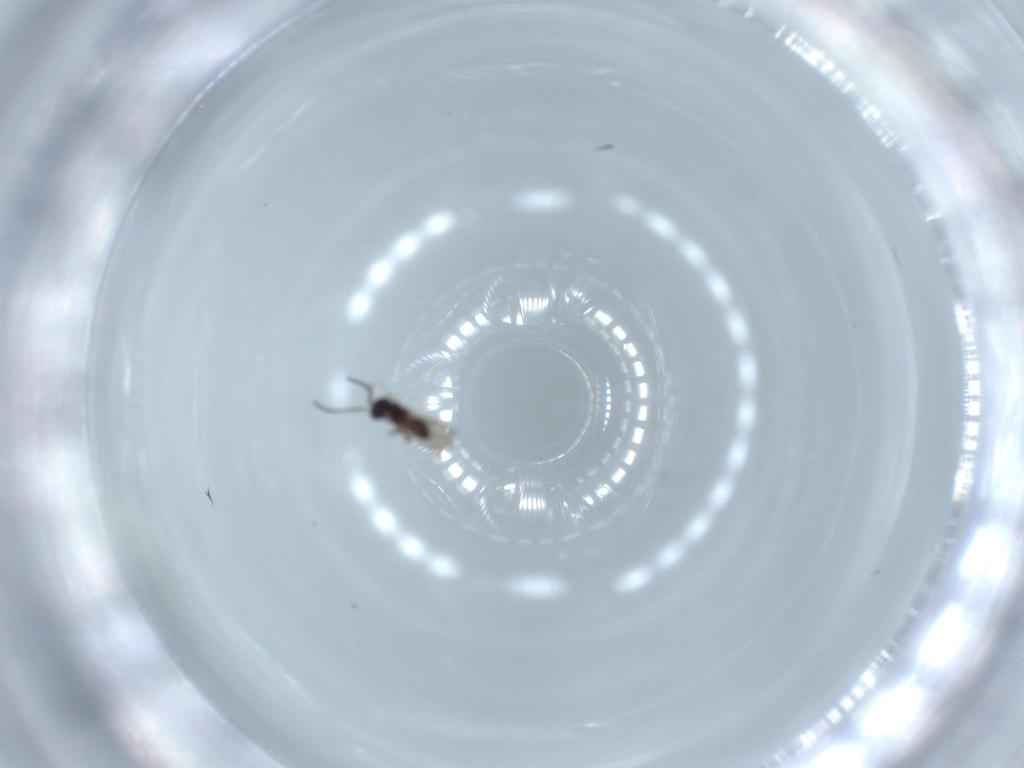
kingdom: Animalia
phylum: Arthropoda
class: Insecta
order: Hymenoptera
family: Ceraphronidae
